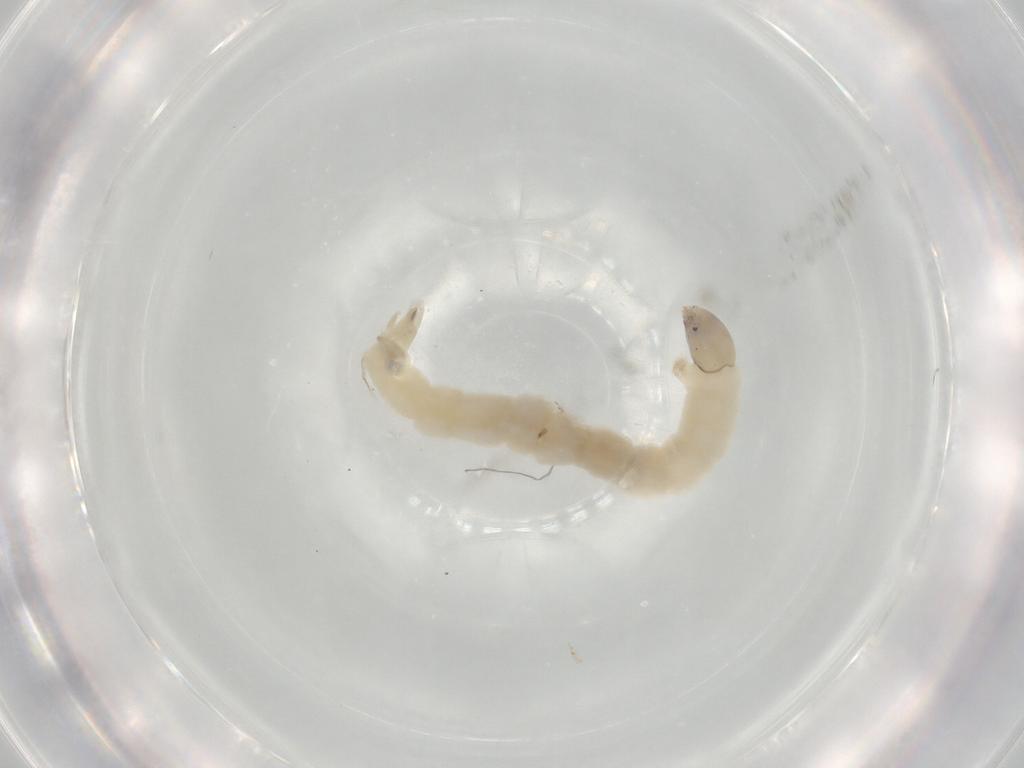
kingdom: Animalia
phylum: Arthropoda
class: Insecta
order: Diptera
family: Chironomidae
